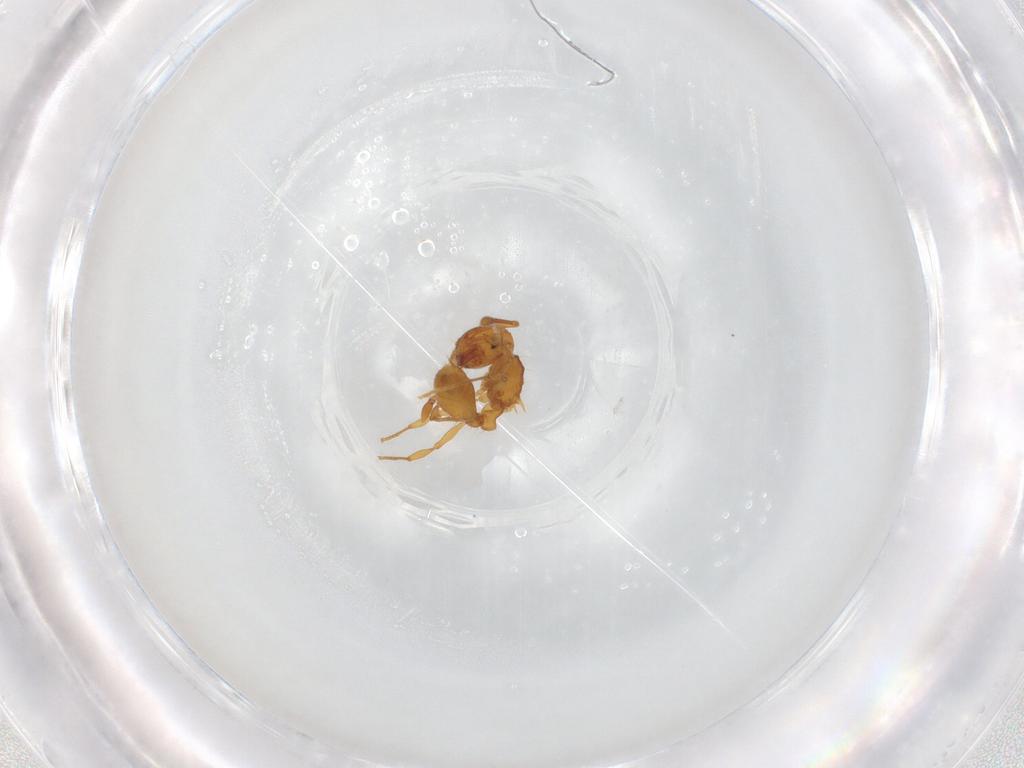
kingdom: Animalia
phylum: Arthropoda
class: Insecta
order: Hymenoptera
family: Formicidae
